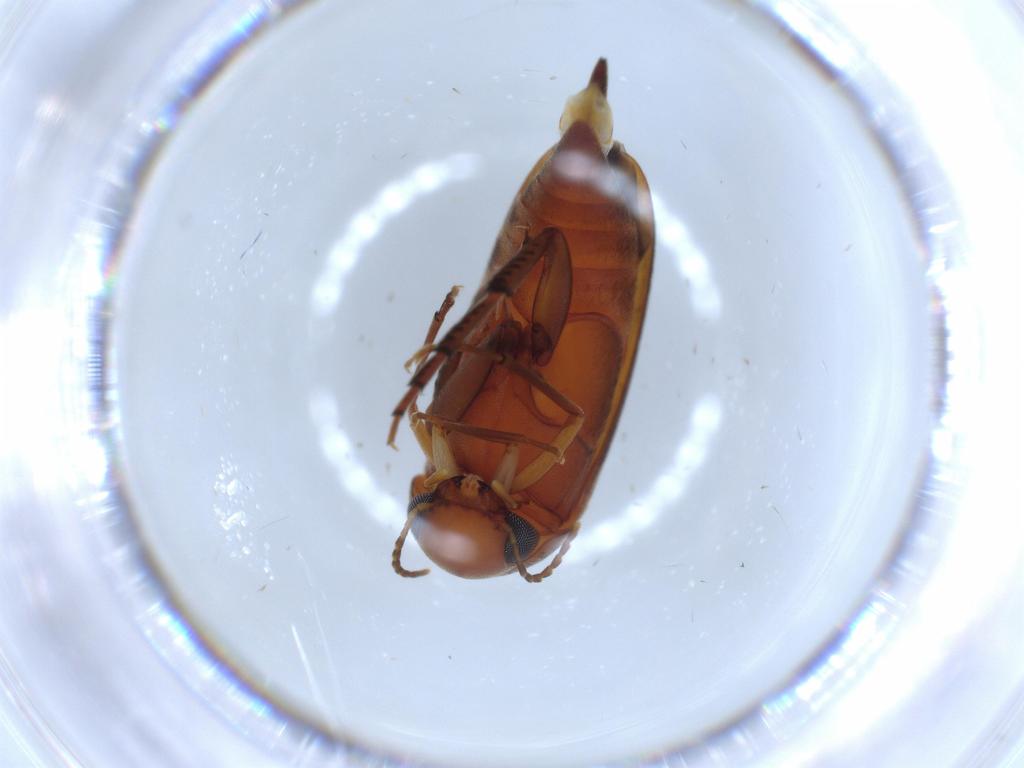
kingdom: Animalia
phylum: Arthropoda
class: Insecta
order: Coleoptera
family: Mordellidae
